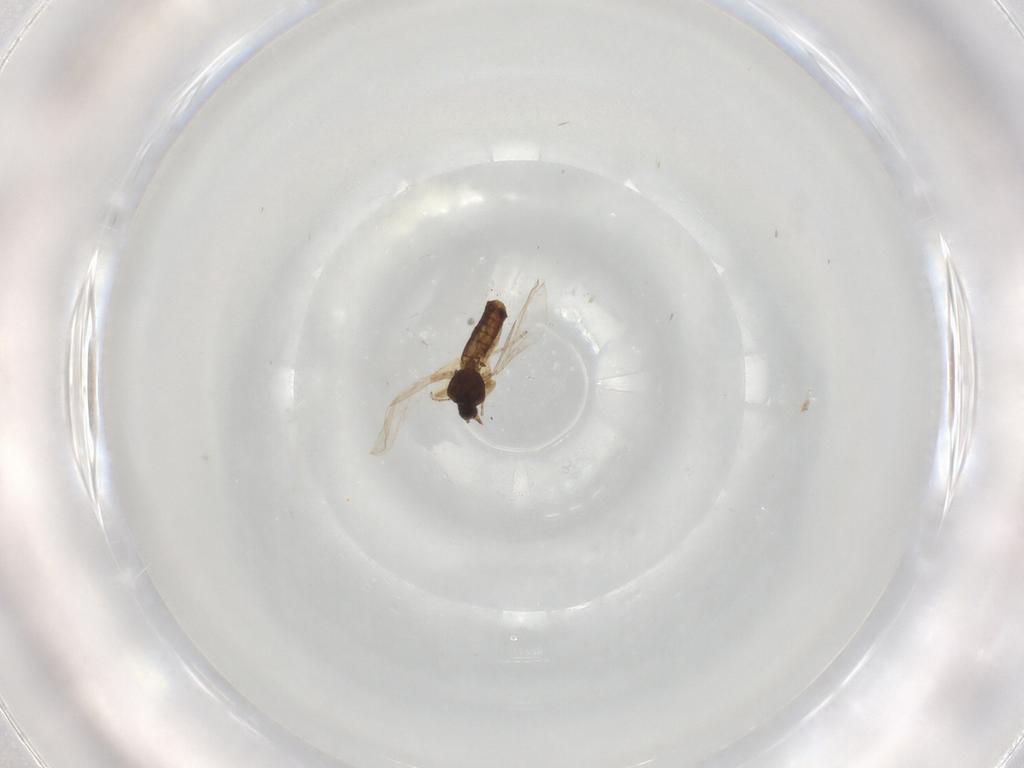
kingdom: Animalia
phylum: Arthropoda
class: Insecta
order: Diptera
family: Ceratopogonidae
